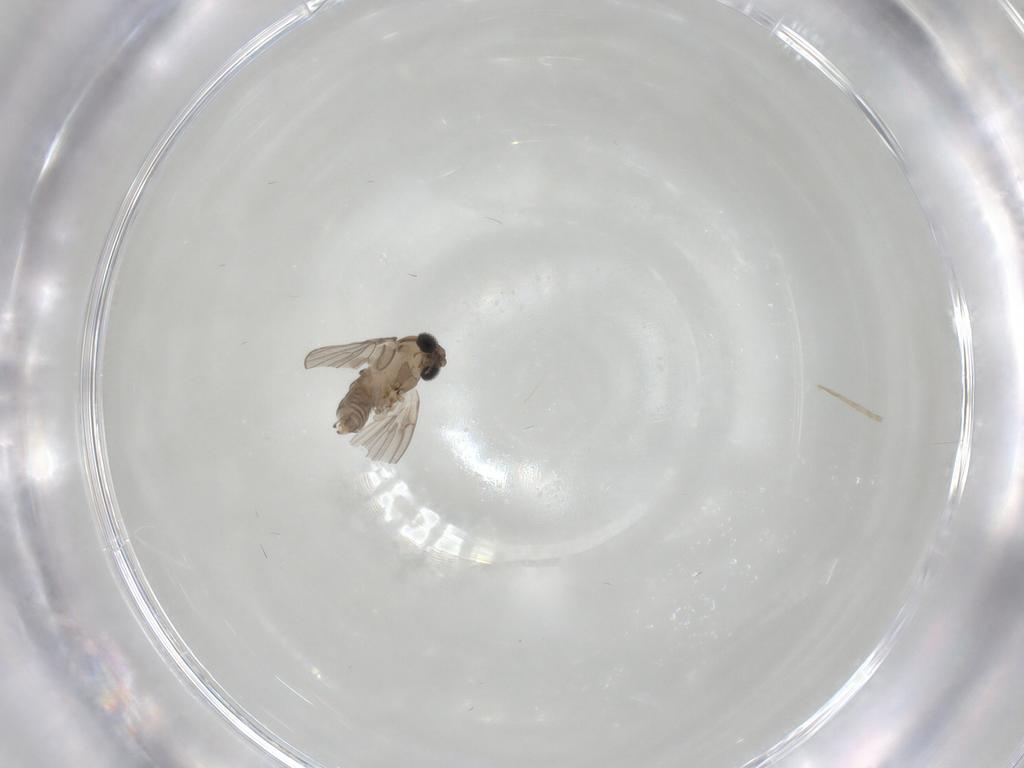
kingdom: Animalia
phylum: Arthropoda
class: Insecta
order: Diptera
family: Psychodidae
